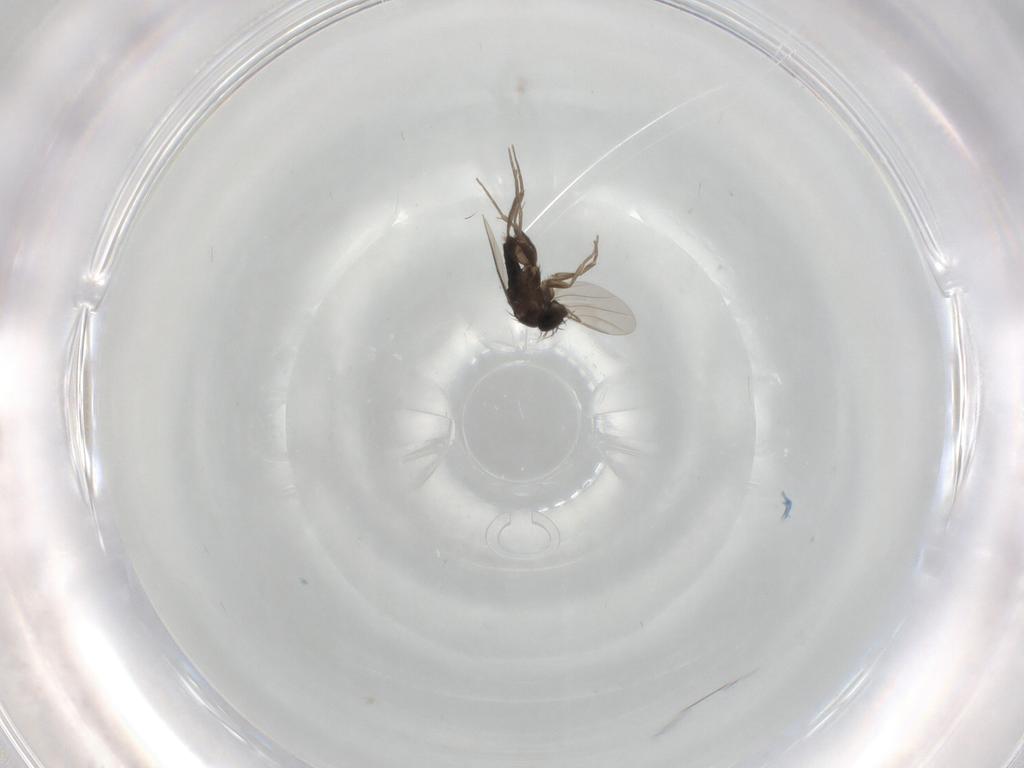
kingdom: Animalia
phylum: Arthropoda
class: Insecta
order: Diptera
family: Phoridae
